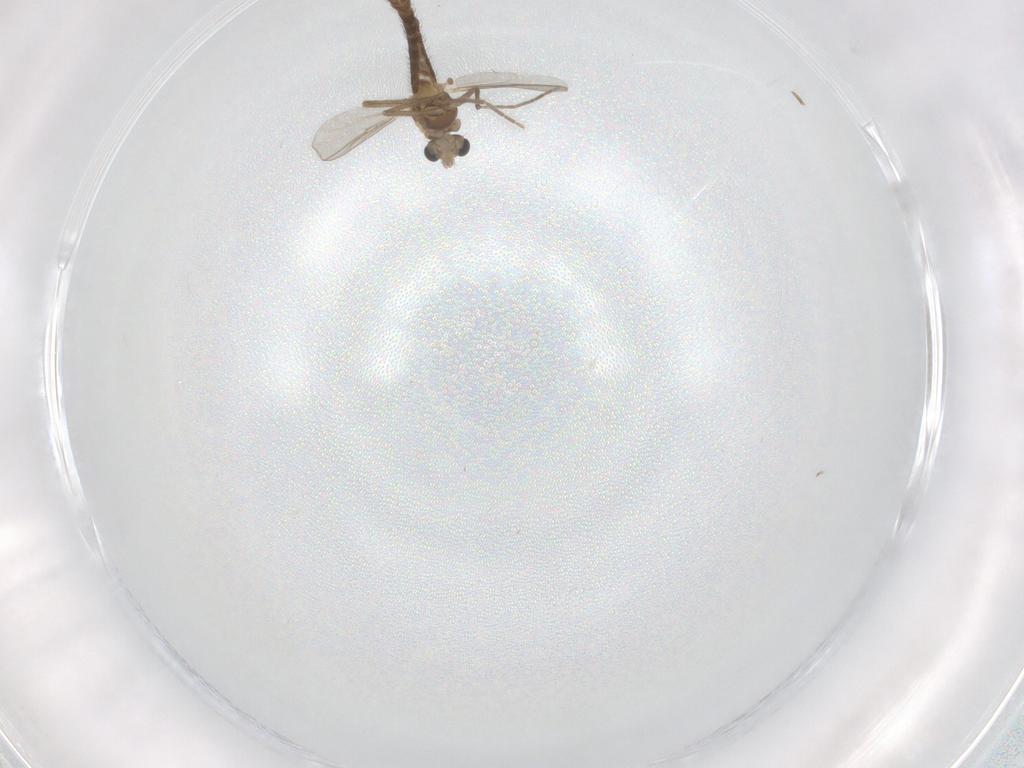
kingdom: Animalia
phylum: Arthropoda
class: Insecta
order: Diptera
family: Chironomidae
